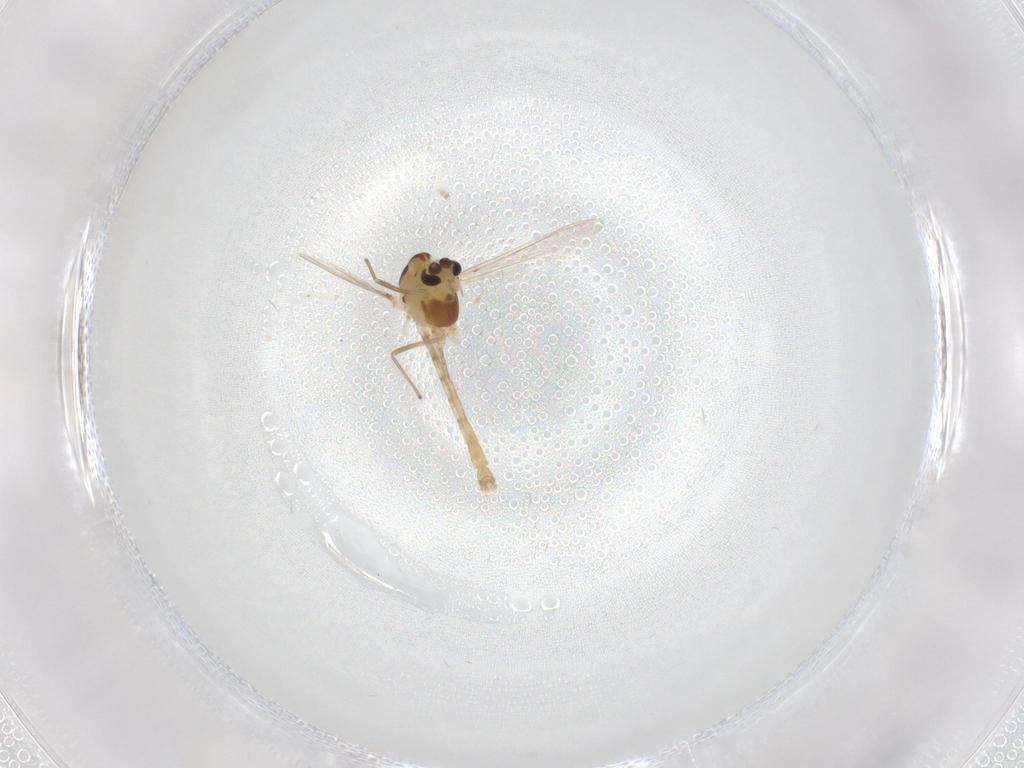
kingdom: Animalia
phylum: Arthropoda
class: Insecta
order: Diptera
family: Chironomidae
